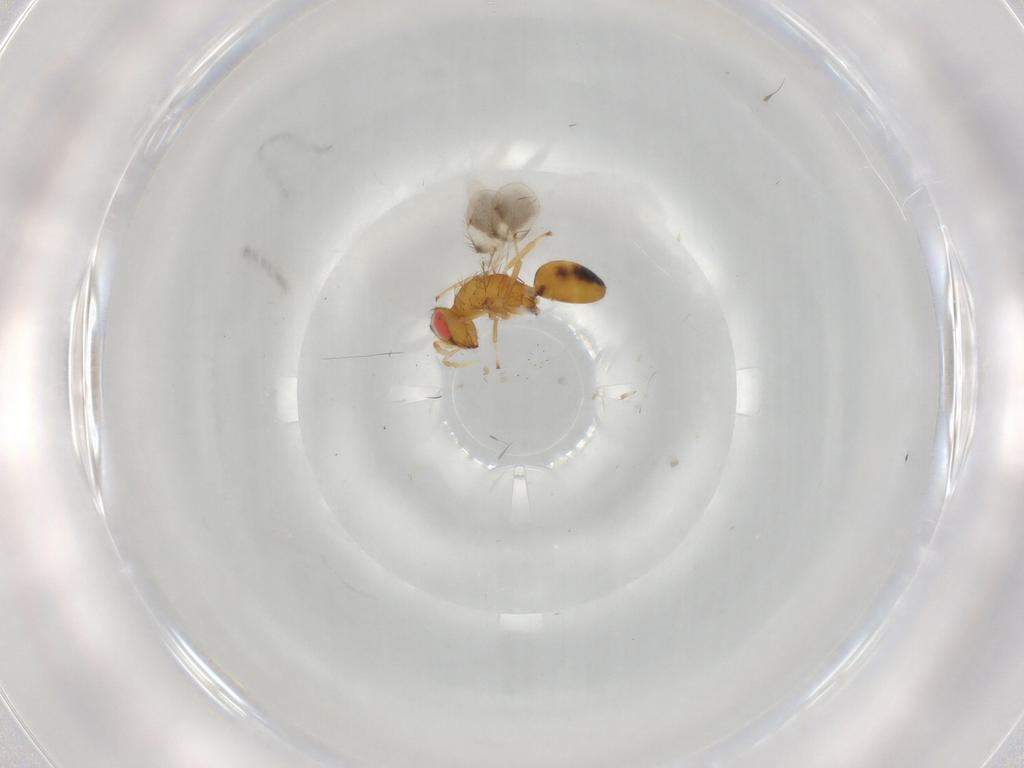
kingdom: Animalia
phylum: Arthropoda
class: Insecta
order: Hymenoptera
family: Eulophidae
